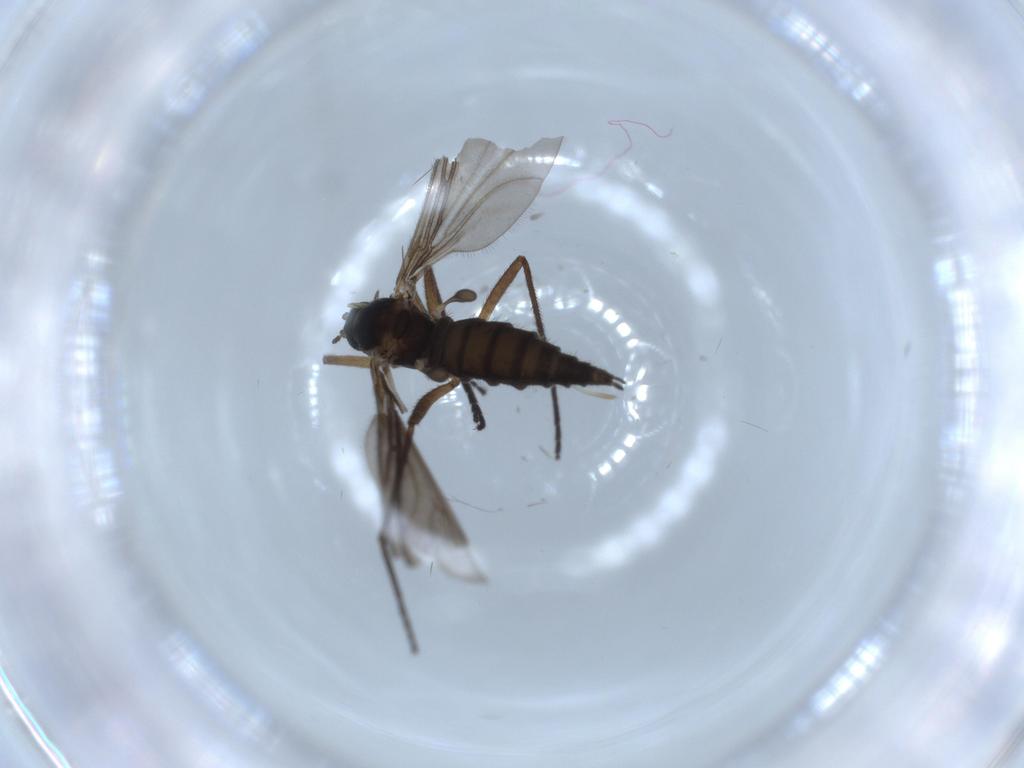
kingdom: Animalia
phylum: Arthropoda
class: Insecta
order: Diptera
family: Sciaridae
